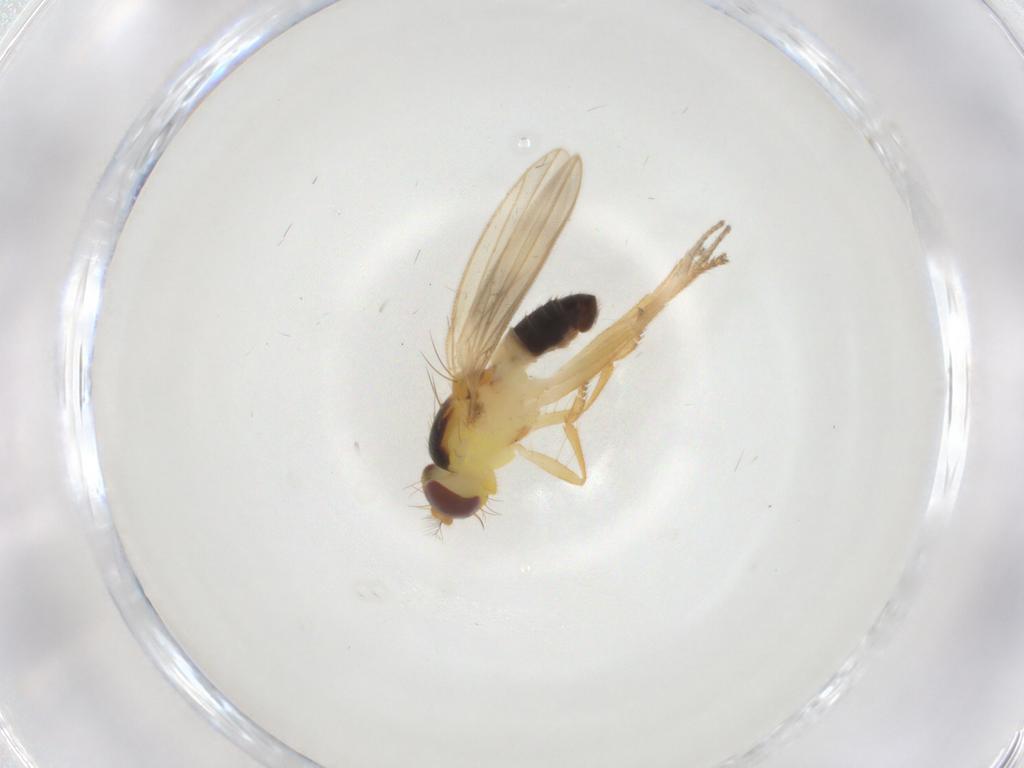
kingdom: Animalia
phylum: Arthropoda
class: Insecta
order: Diptera
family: Periscelididae
